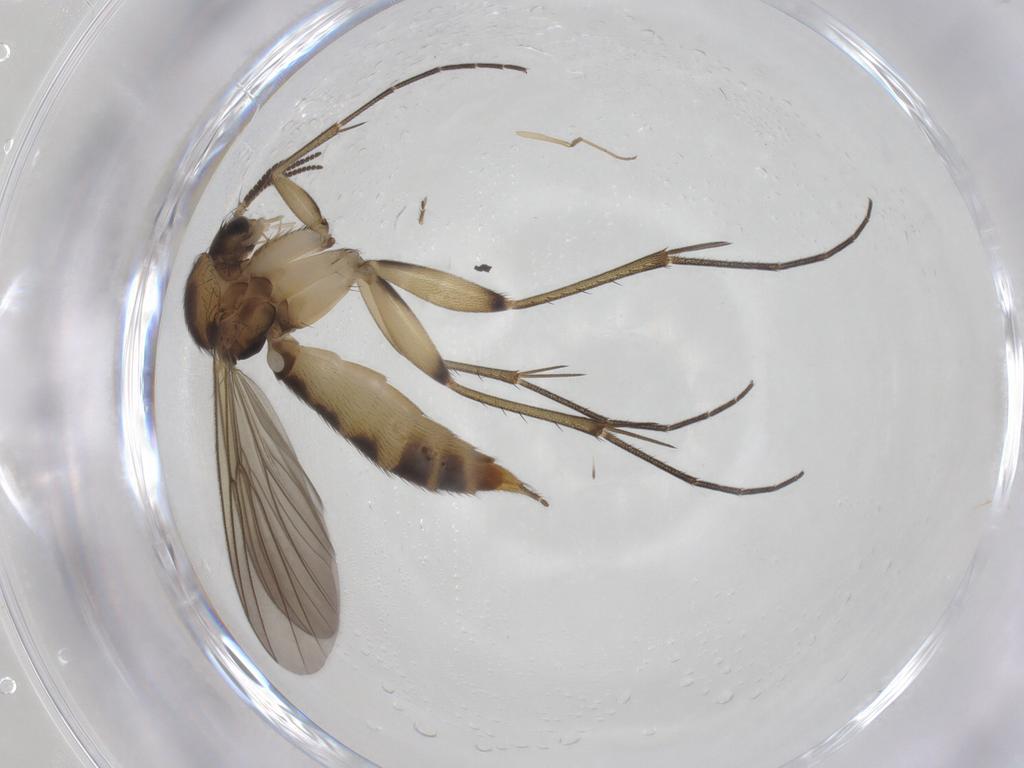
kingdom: Animalia
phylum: Arthropoda
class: Insecta
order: Diptera
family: Mycetophilidae
